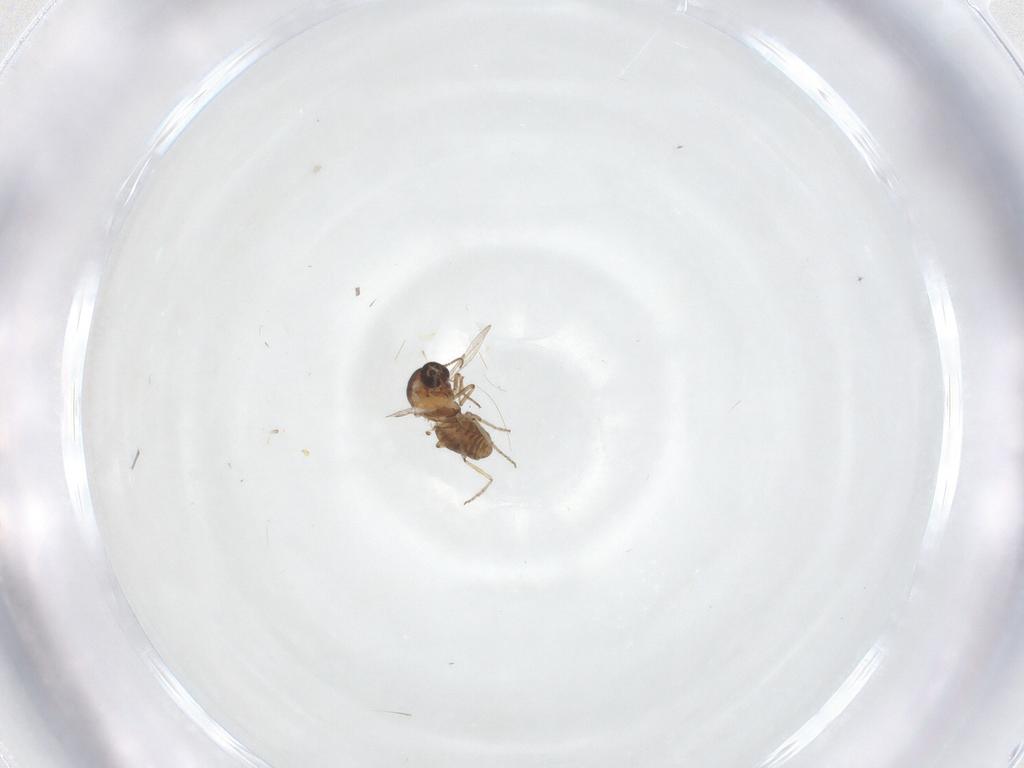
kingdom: Animalia
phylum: Arthropoda
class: Insecta
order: Diptera
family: Ceratopogonidae
